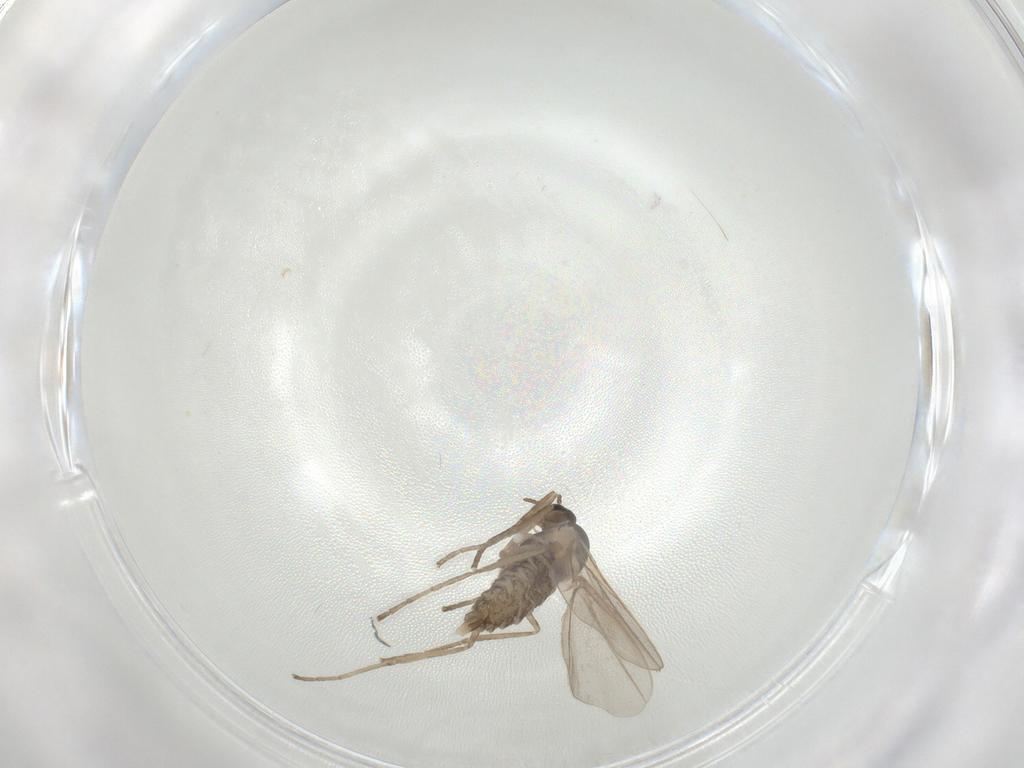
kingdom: Animalia
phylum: Arthropoda
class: Insecta
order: Diptera
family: Cecidomyiidae
